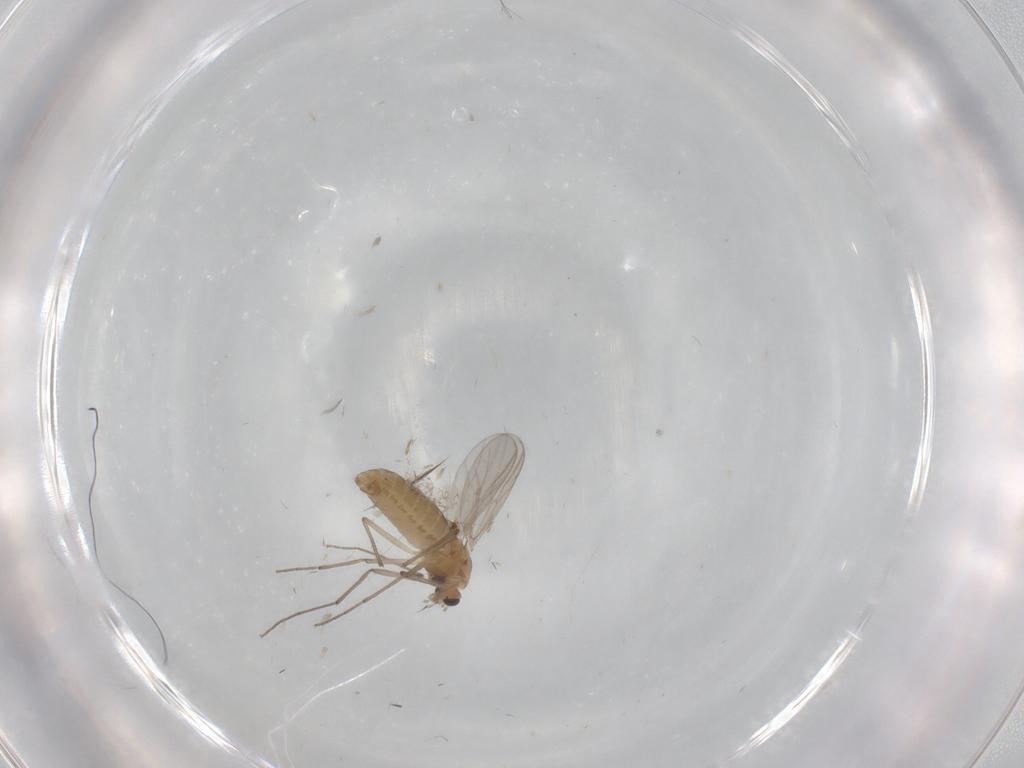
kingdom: Animalia
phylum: Arthropoda
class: Insecta
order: Diptera
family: Chironomidae
